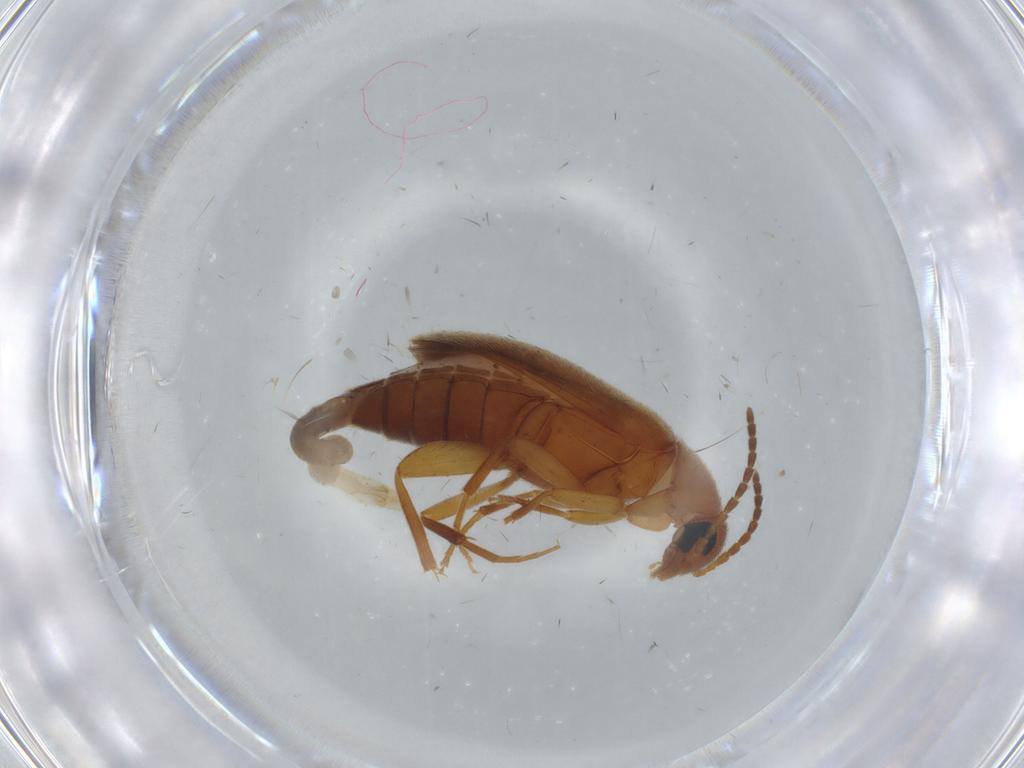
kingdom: Animalia
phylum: Arthropoda
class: Insecta
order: Coleoptera
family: Scraptiidae
